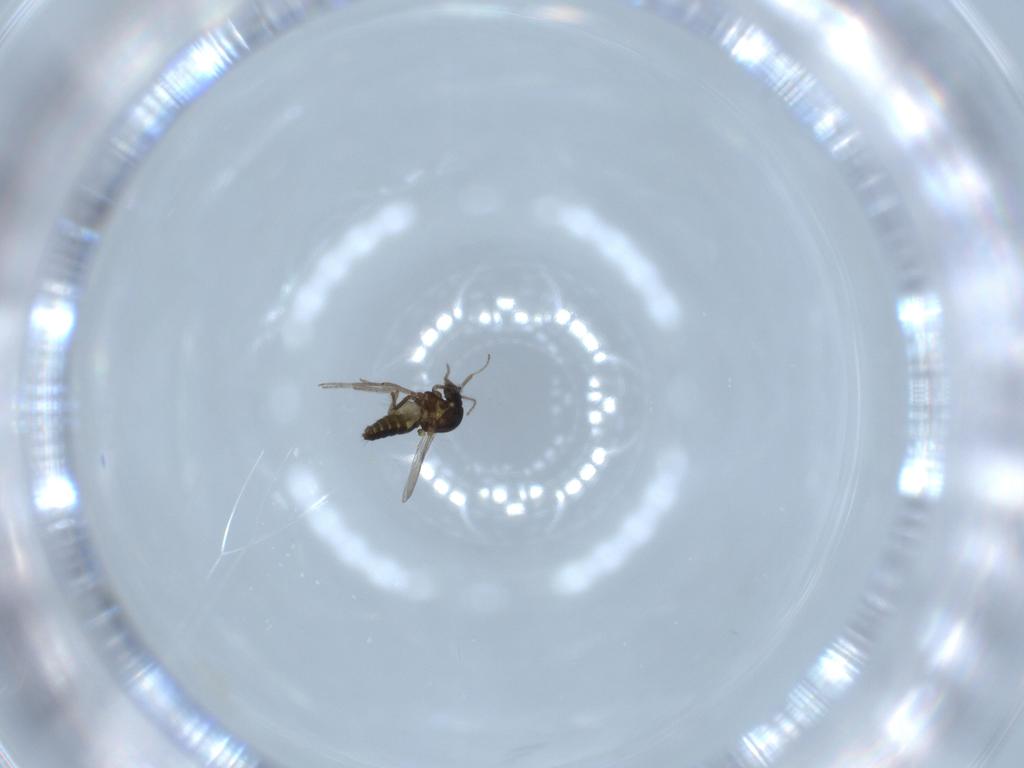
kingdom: Animalia
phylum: Arthropoda
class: Insecta
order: Diptera
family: Ceratopogonidae
